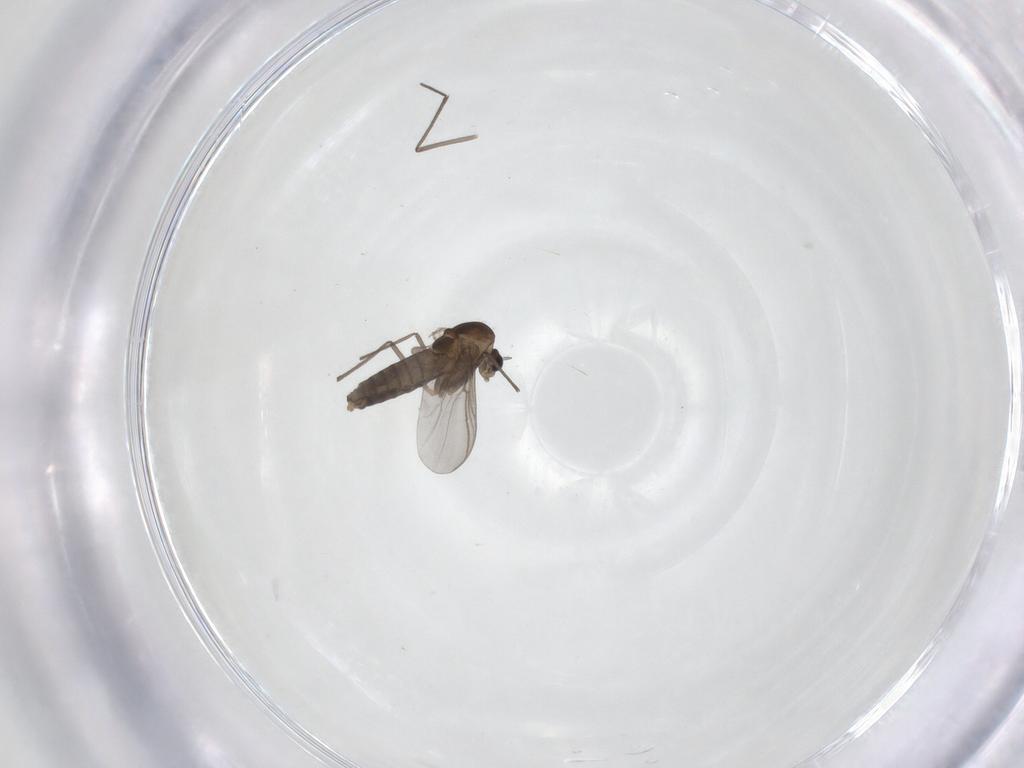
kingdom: Animalia
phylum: Arthropoda
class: Insecta
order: Diptera
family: Chironomidae
